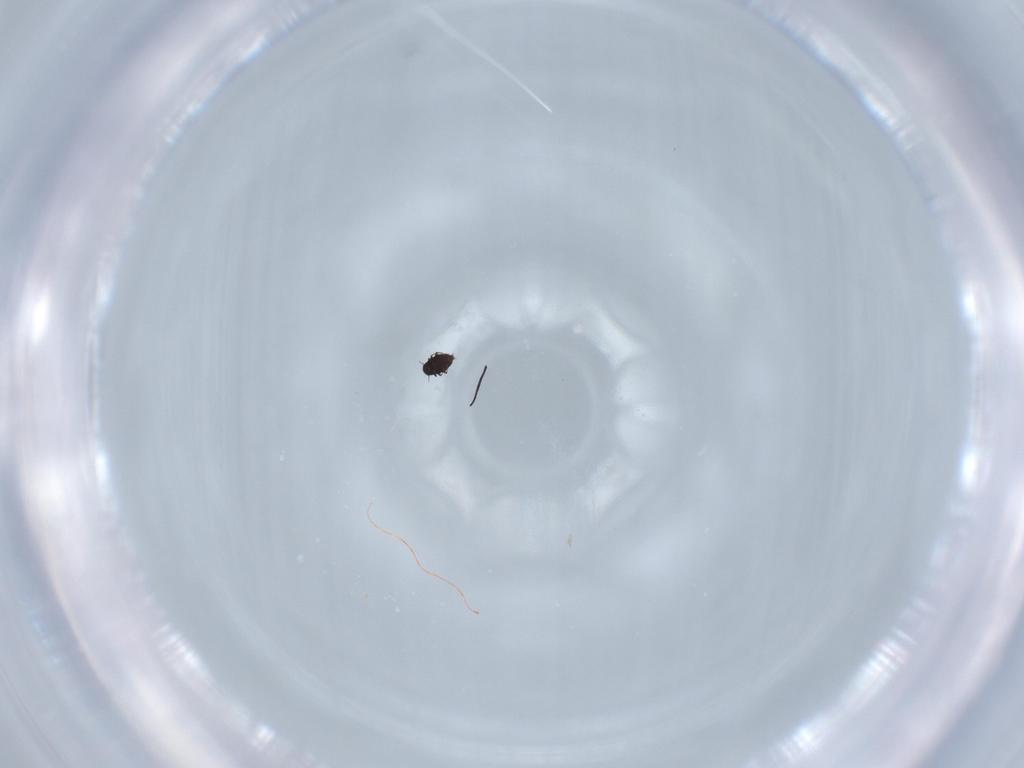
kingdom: Animalia
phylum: Arthropoda
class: Insecta
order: Coleoptera
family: Ripiphoridae
